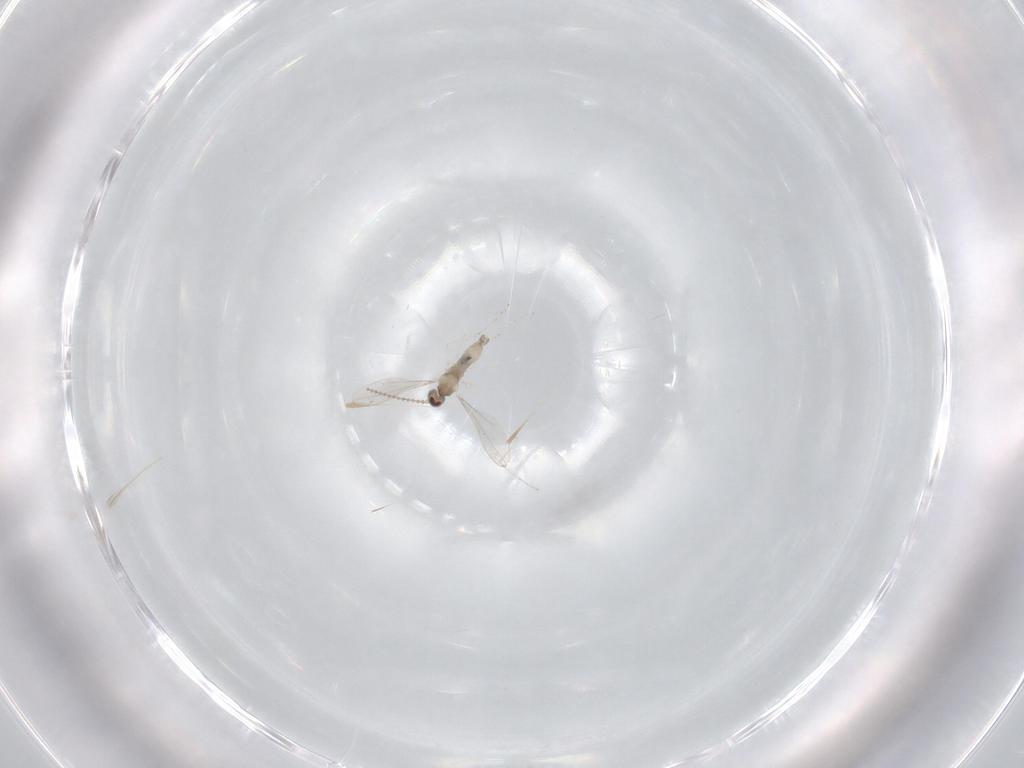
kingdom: Animalia
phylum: Arthropoda
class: Insecta
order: Diptera
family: Cecidomyiidae
